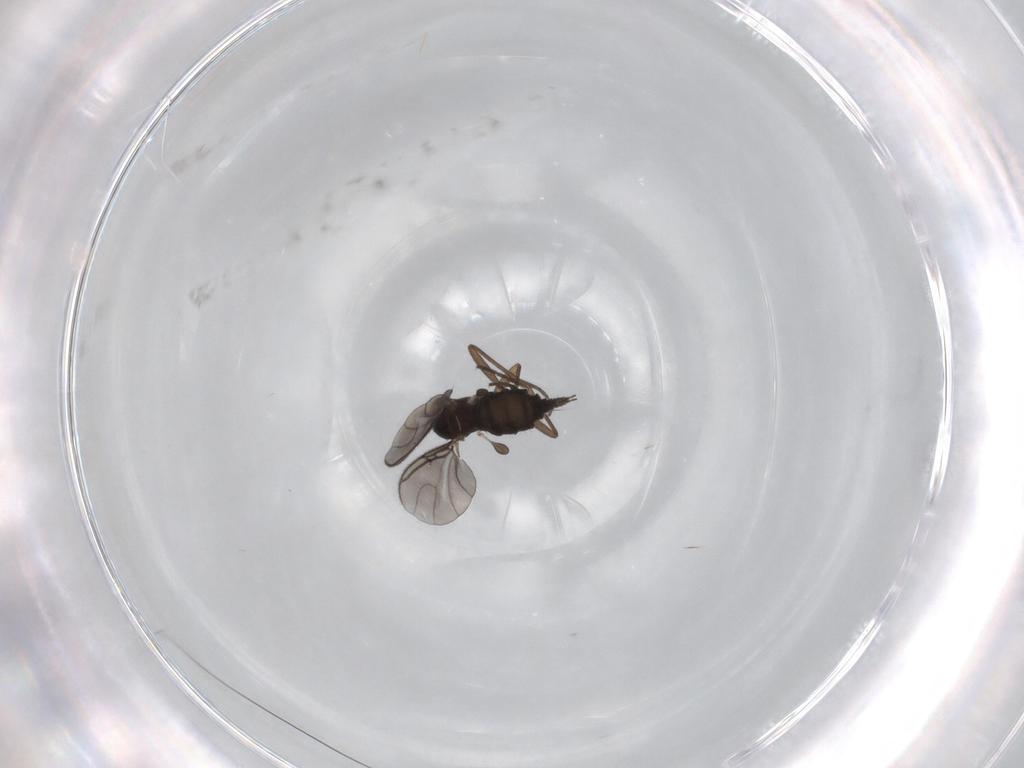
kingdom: Animalia
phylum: Arthropoda
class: Insecta
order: Diptera
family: Sciaridae
